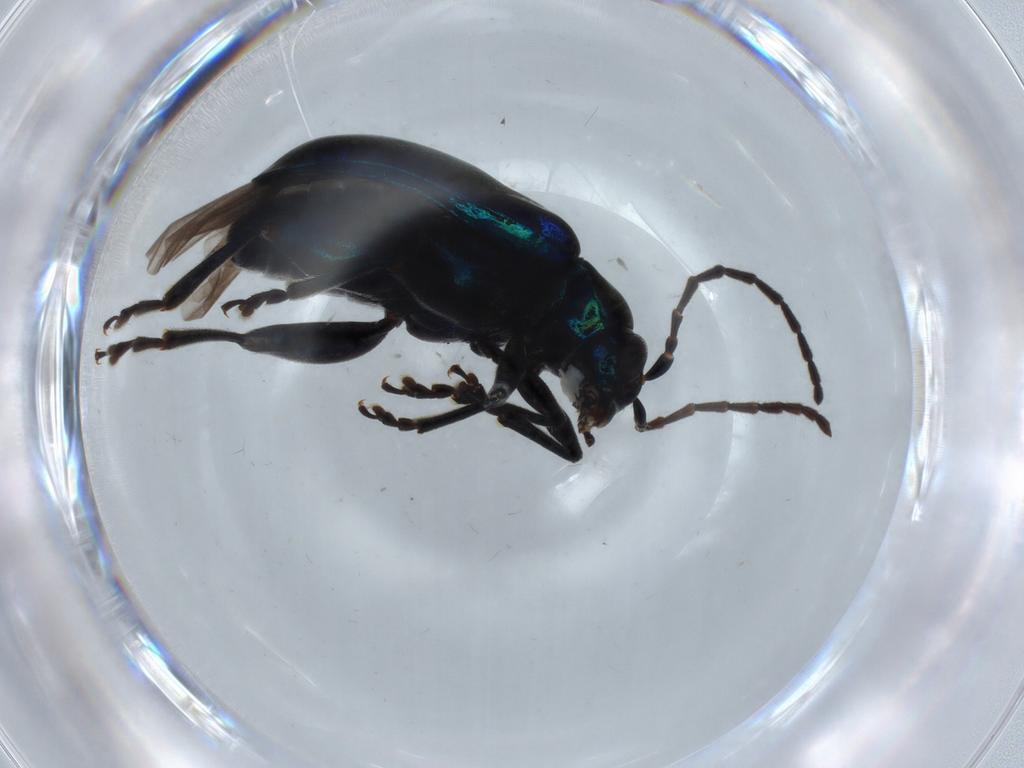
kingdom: Animalia
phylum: Arthropoda
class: Insecta
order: Coleoptera
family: Chrysomelidae
